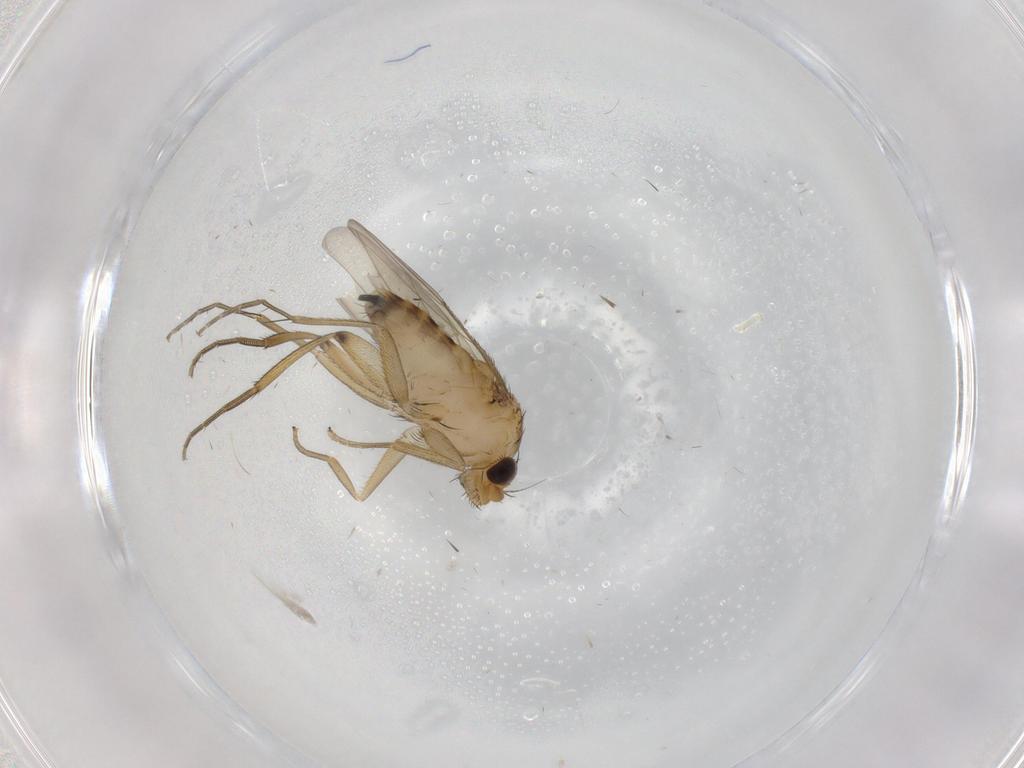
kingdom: Animalia
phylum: Arthropoda
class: Insecta
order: Diptera
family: Phoridae
